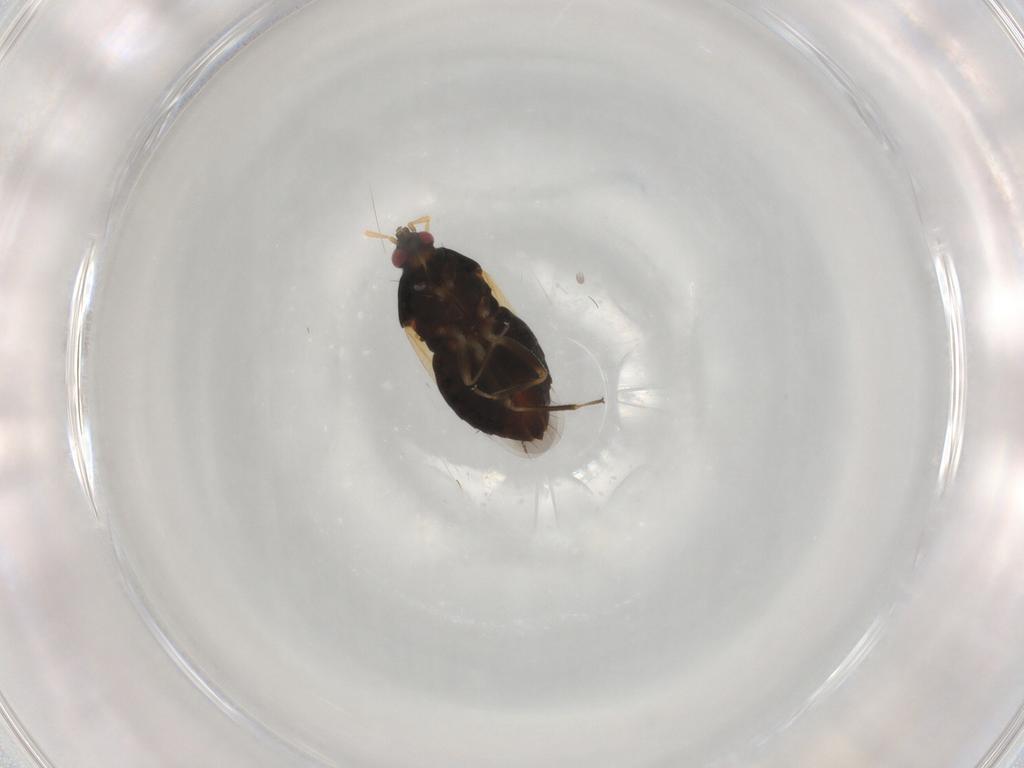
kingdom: Animalia
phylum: Arthropoda
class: Insecta
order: Hemiptera
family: Anthocoridae
